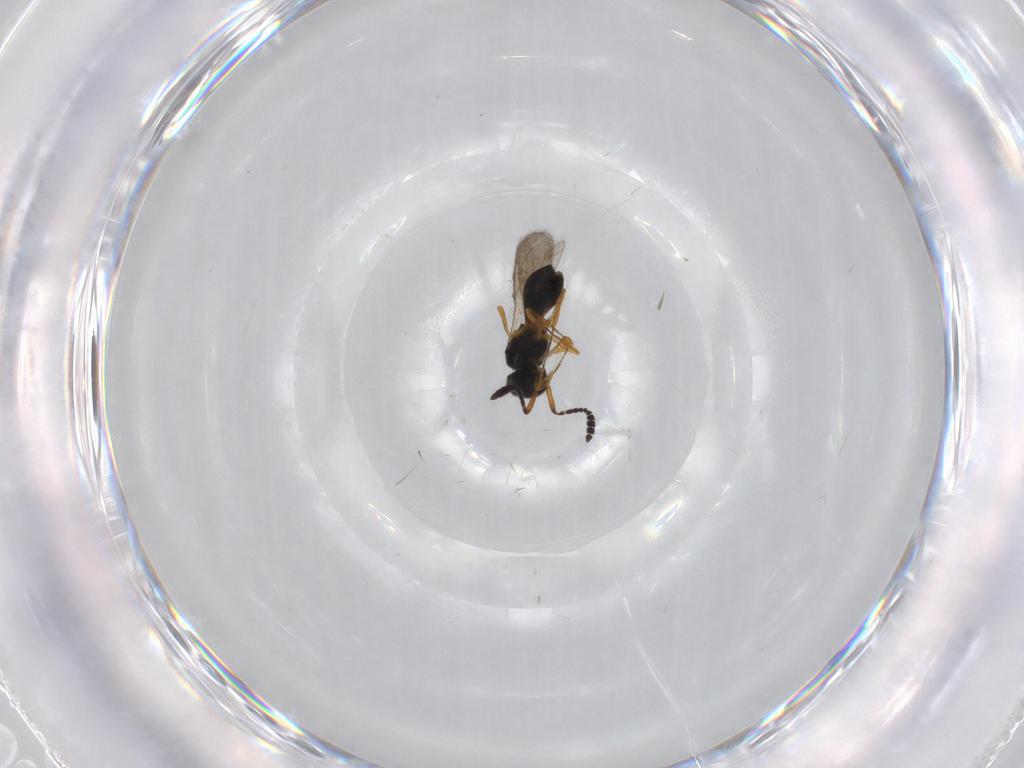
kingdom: Animalia
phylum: Arthropoda
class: Insecta
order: Hymenoptera
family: Scelionidae
